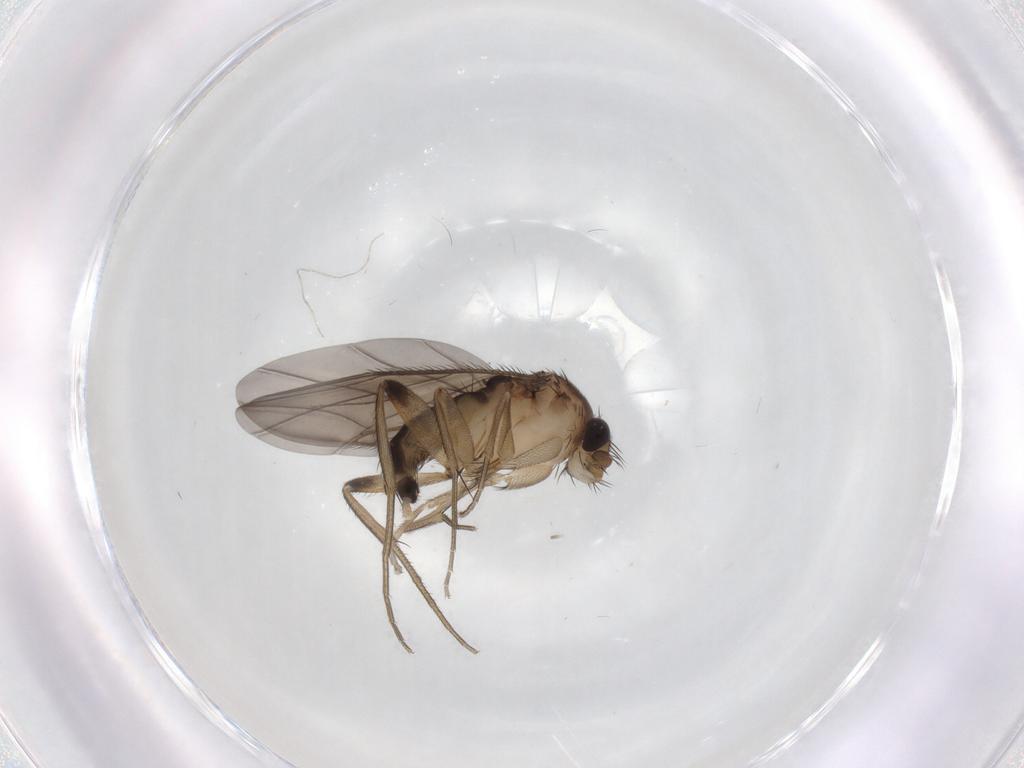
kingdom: Animalia
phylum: Arthropoda
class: Insecta
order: Diptera
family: Phoridae
